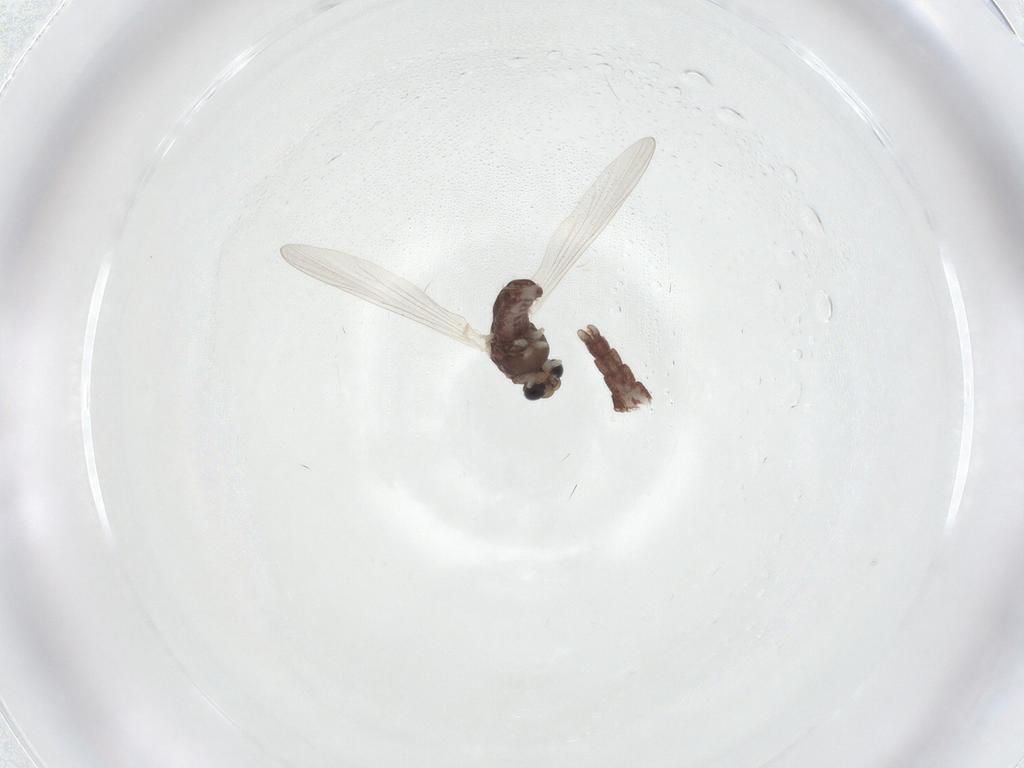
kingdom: Animalia
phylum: Arthropoda
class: Insecta
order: Diptera
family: Chironomidae
